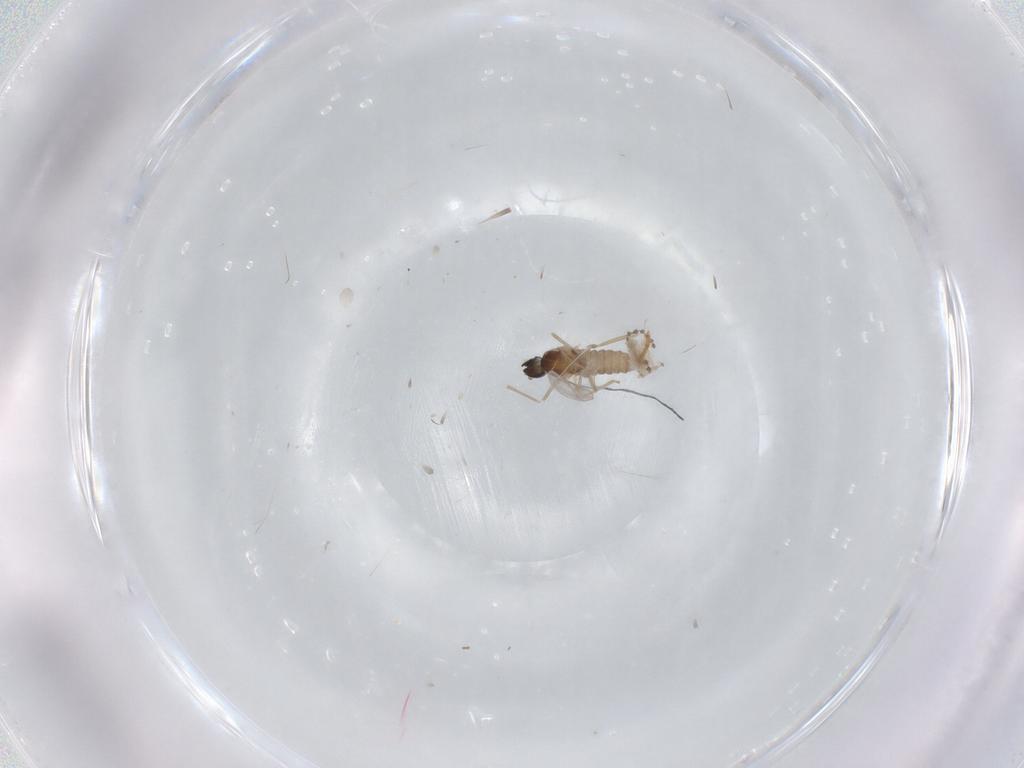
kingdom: Animalia
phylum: Arthropoda
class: Insecta
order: Diptera
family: Cecidomyiidae
